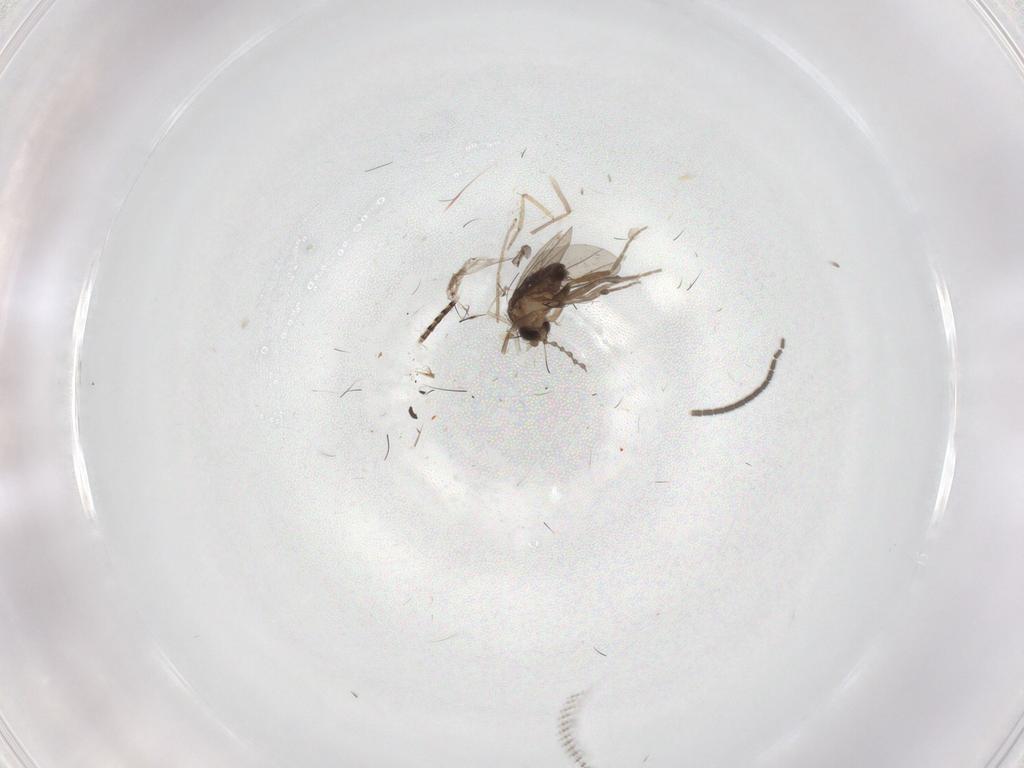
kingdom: Animalia
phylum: Arthropoda
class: Insecta
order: Diptera
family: Sciaridae
